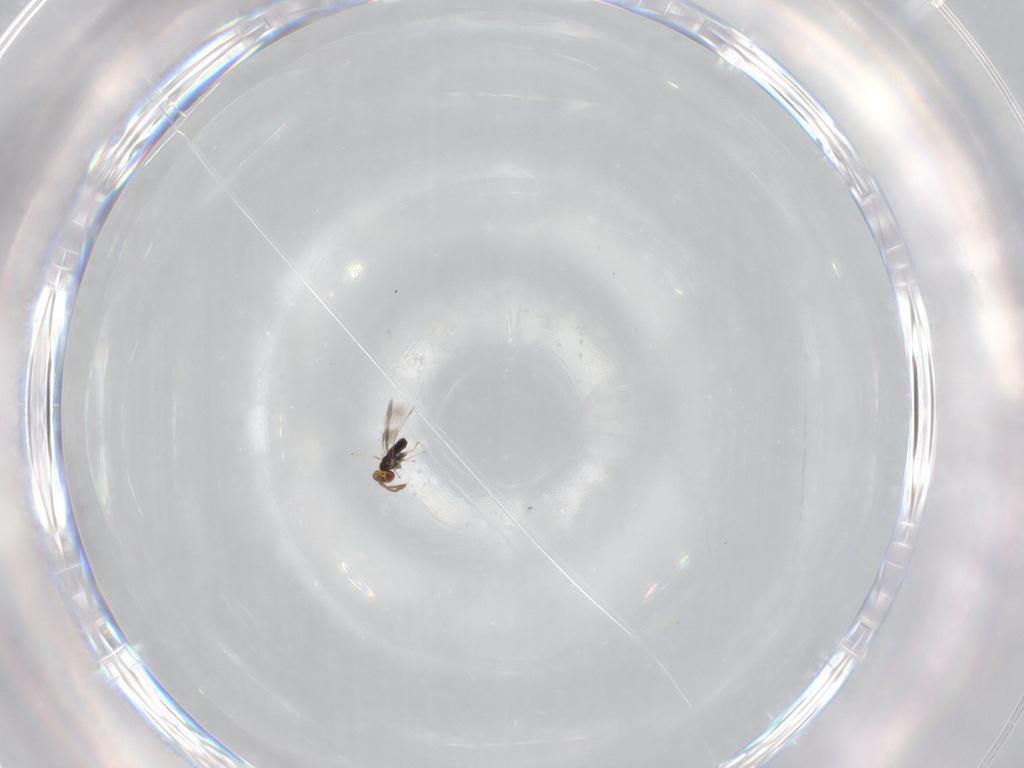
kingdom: Animalia
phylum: Arthropoda
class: Insecta
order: Hymenoptera
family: Azotidae
